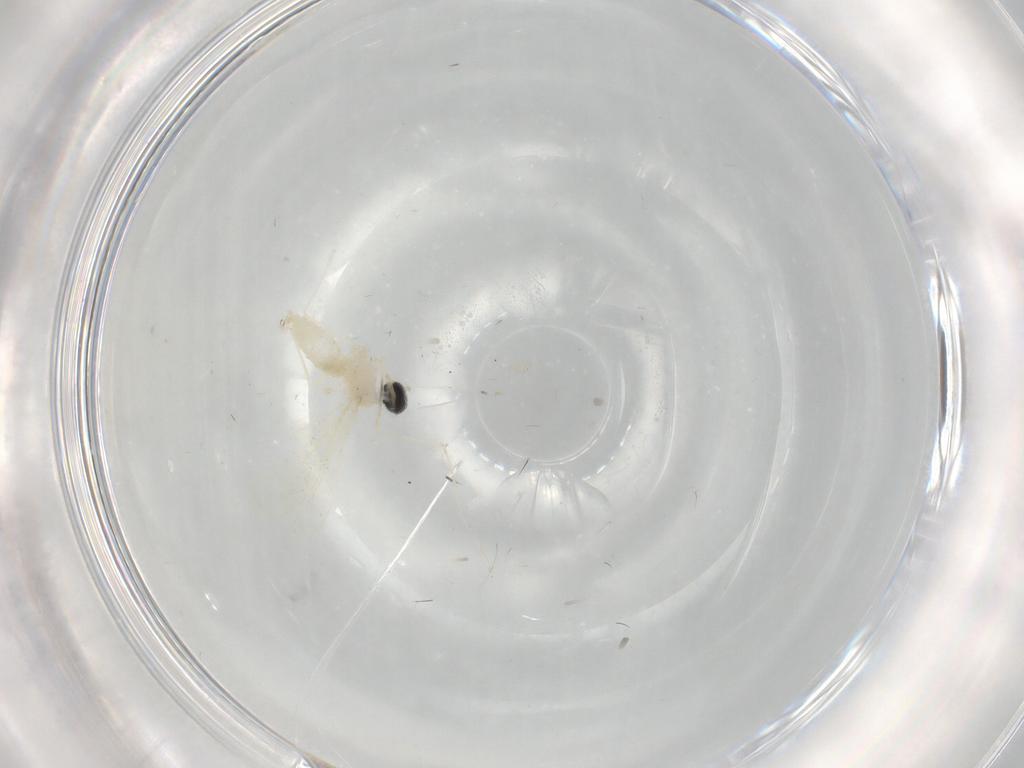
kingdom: Animalia
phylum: Arthropoda
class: Insecta
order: Diptera
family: Cecidomyiidae
